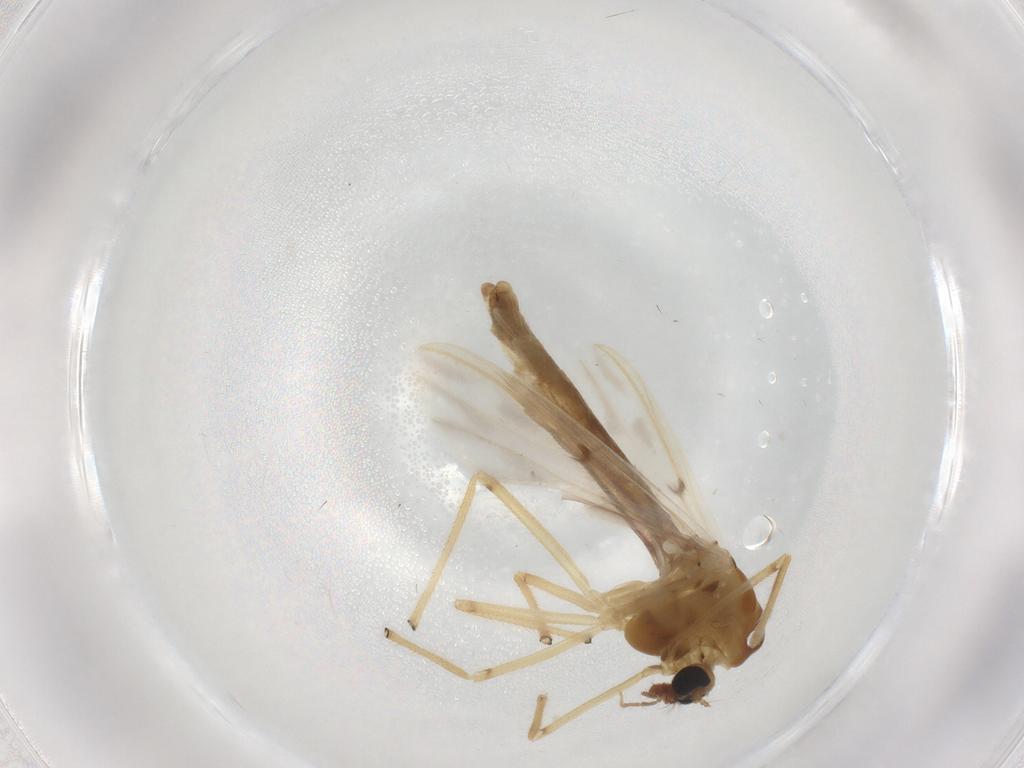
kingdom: Animalia
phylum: Arthropoda
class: Insecta
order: Diptera
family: Chironomidae
